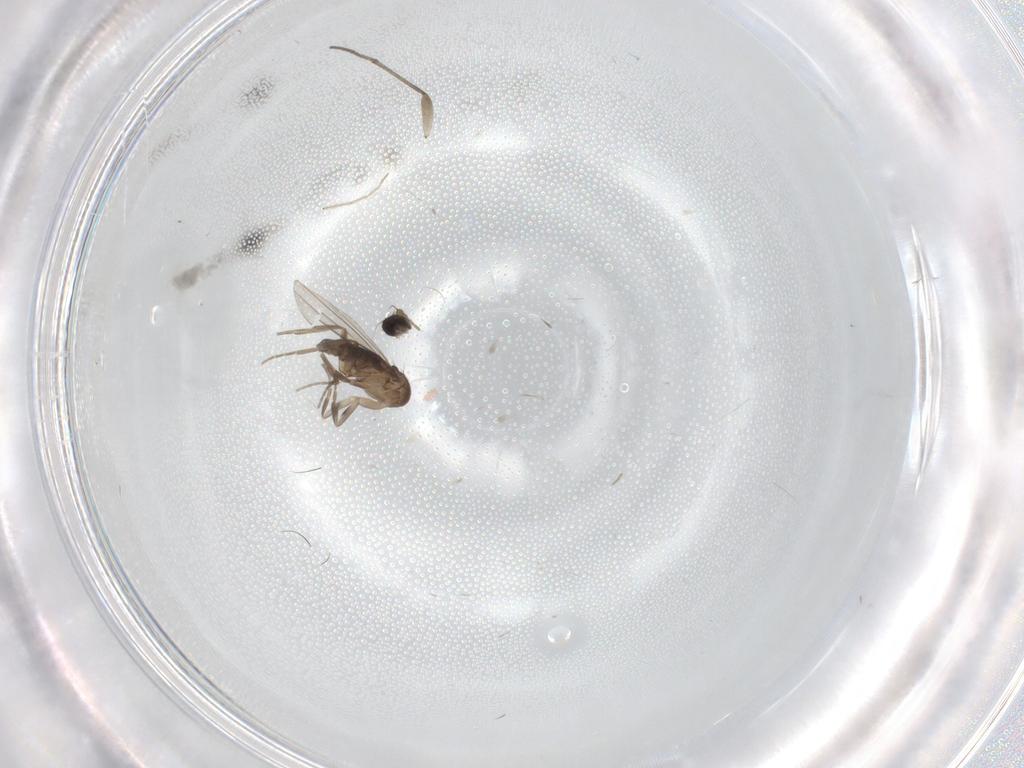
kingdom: Animalia
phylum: Arthropoda
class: Insecta
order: Diptera
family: Phoridae
